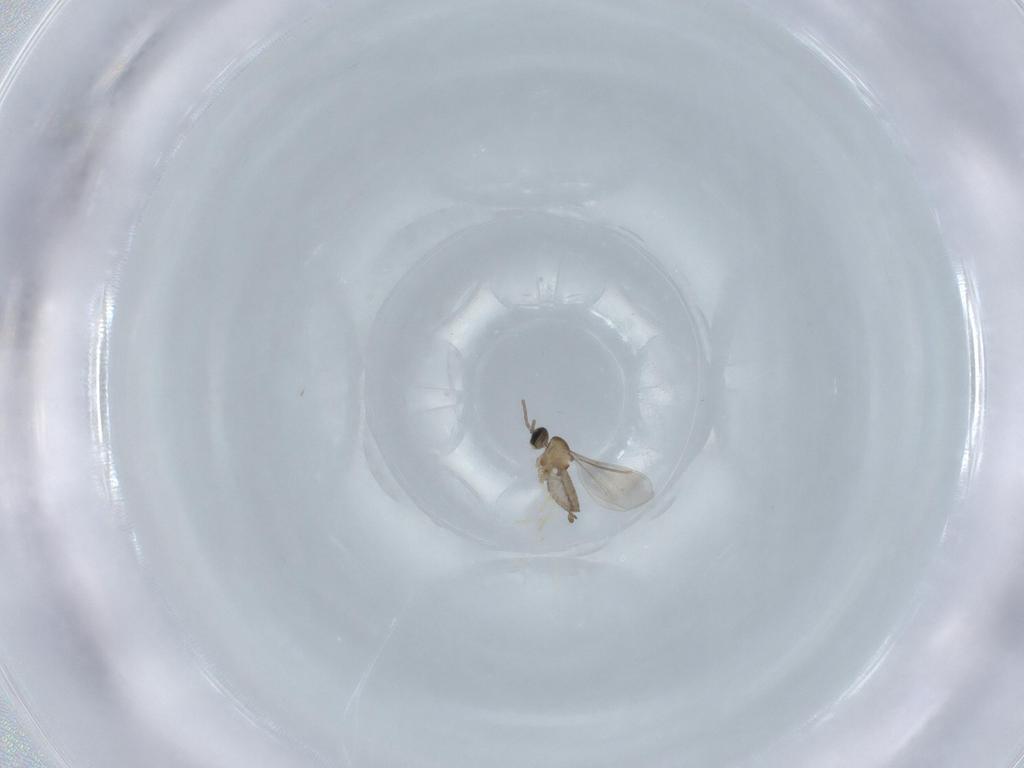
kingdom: Animalia
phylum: Arthropoda
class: Insecta
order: Diptera
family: Cecidomyiidae
